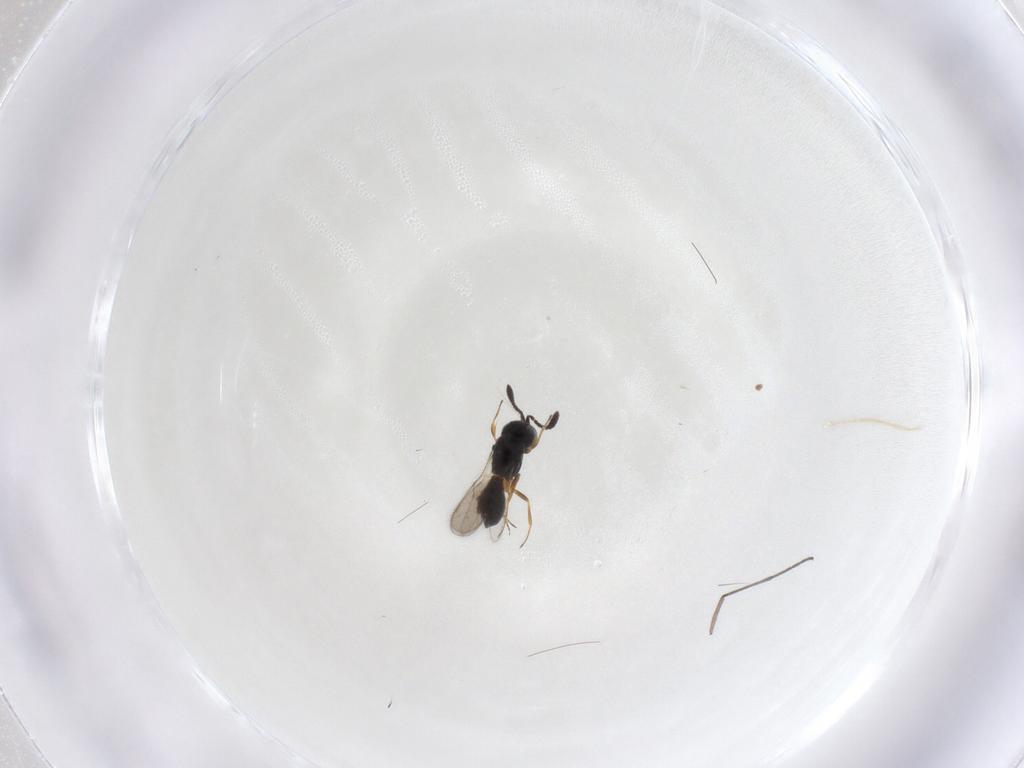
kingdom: Animalia
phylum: Arthropoda
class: Insecta
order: Hymenoptera
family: Scelionidae
